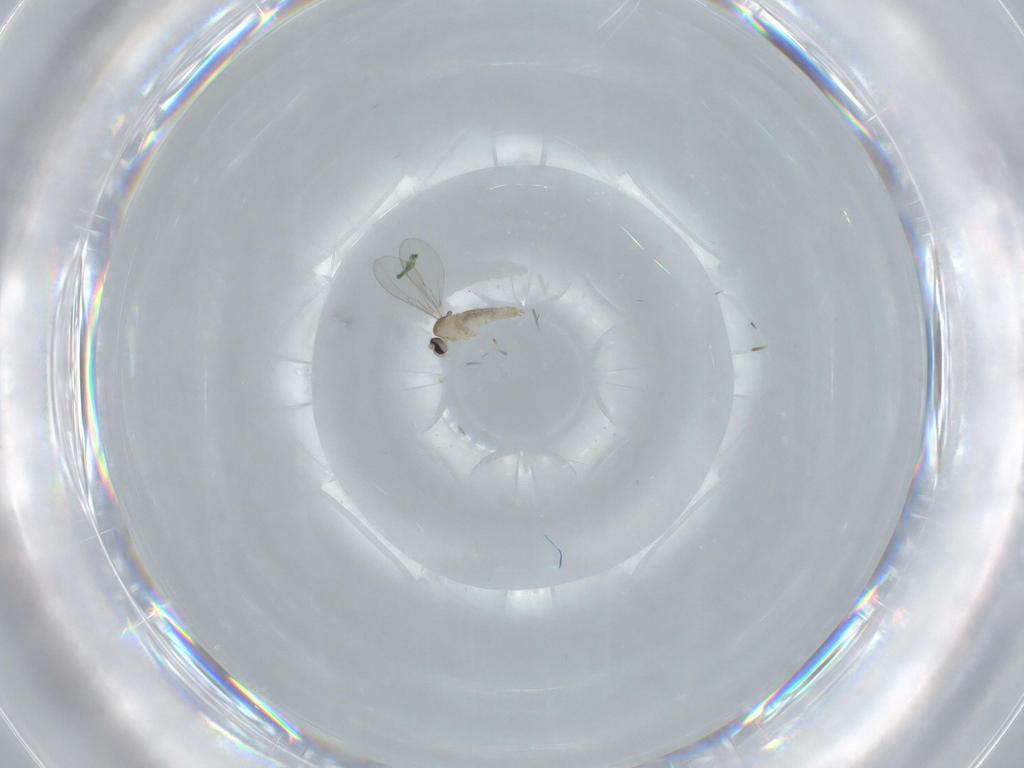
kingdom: Animalia
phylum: Arthropoda
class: Insecta
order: Diptera
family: Cecidomyiidae
